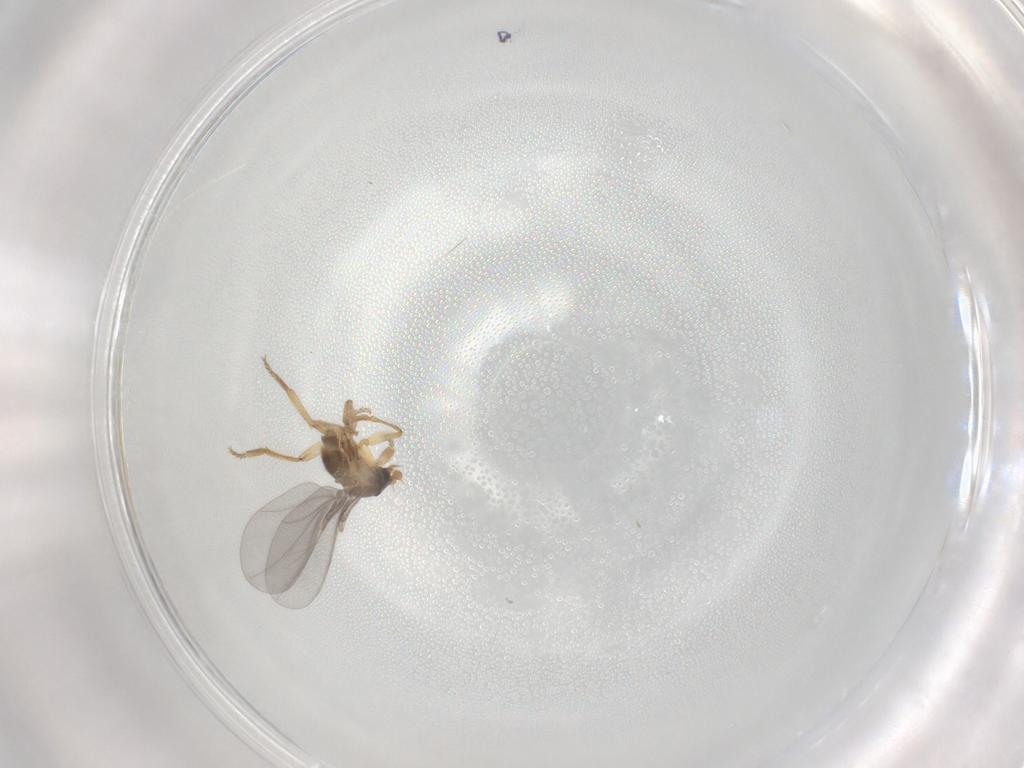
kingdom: Animalia
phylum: Arthropoda
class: Insecta
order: Diptera
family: Phoridae
